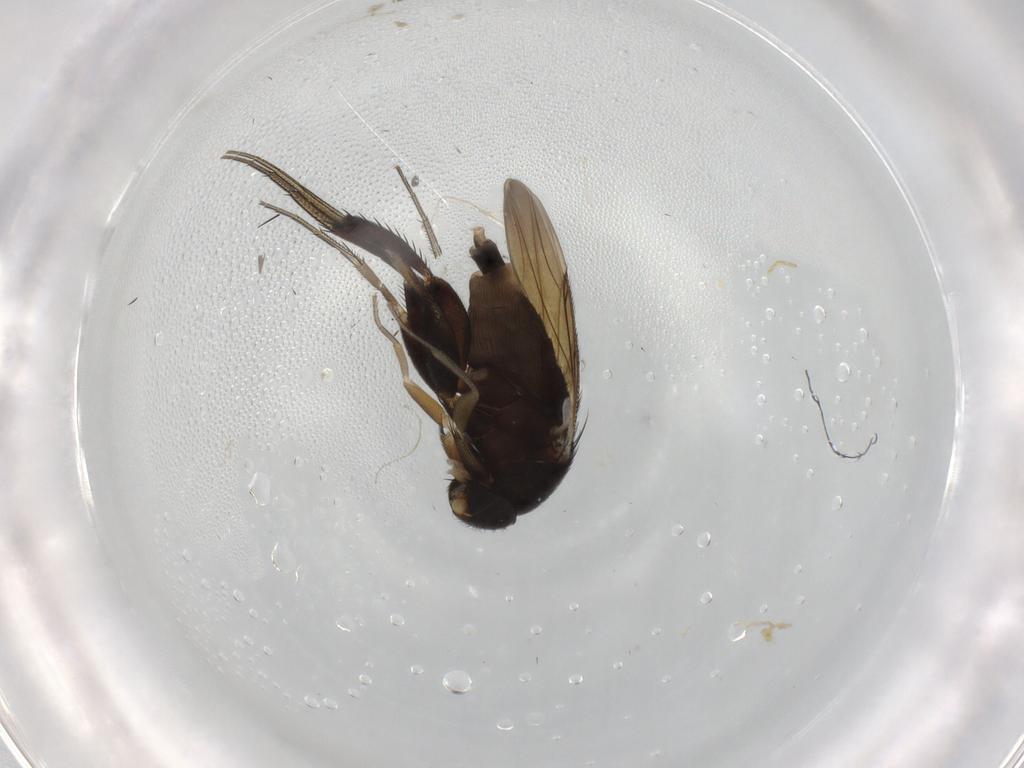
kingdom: Animalia
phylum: Arthropoda
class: Insecta
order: Diptera
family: Phoridae
